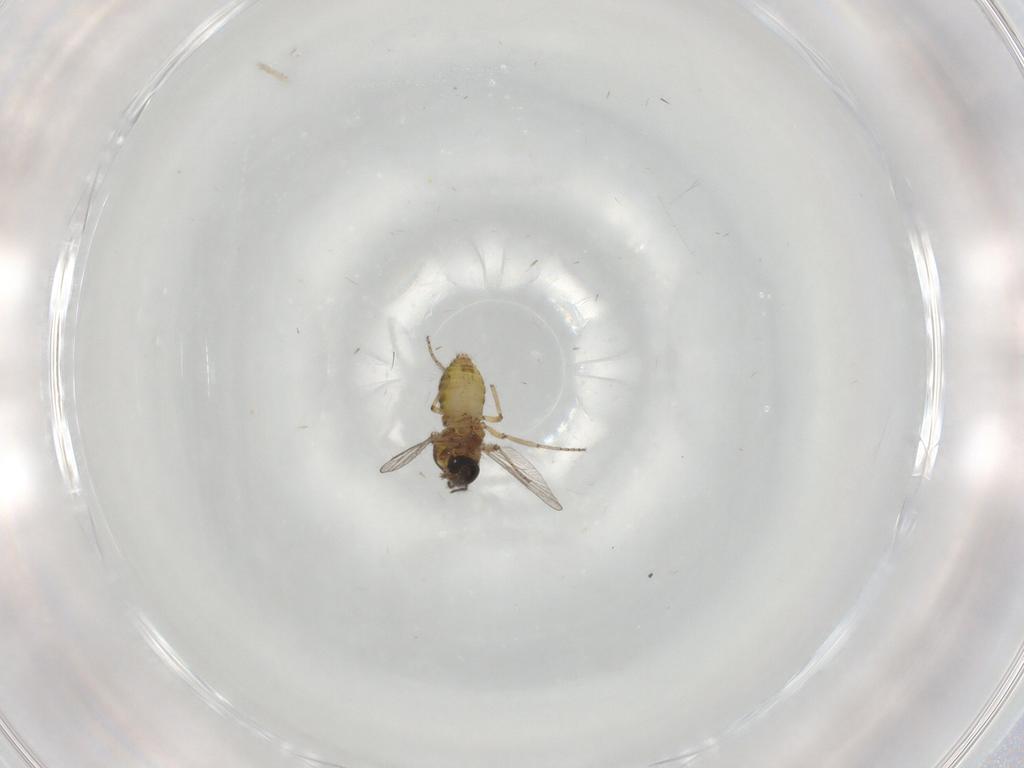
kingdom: Animalia
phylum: Arthropoda
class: Insecta
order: Diptera
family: Ceratopogonidae
